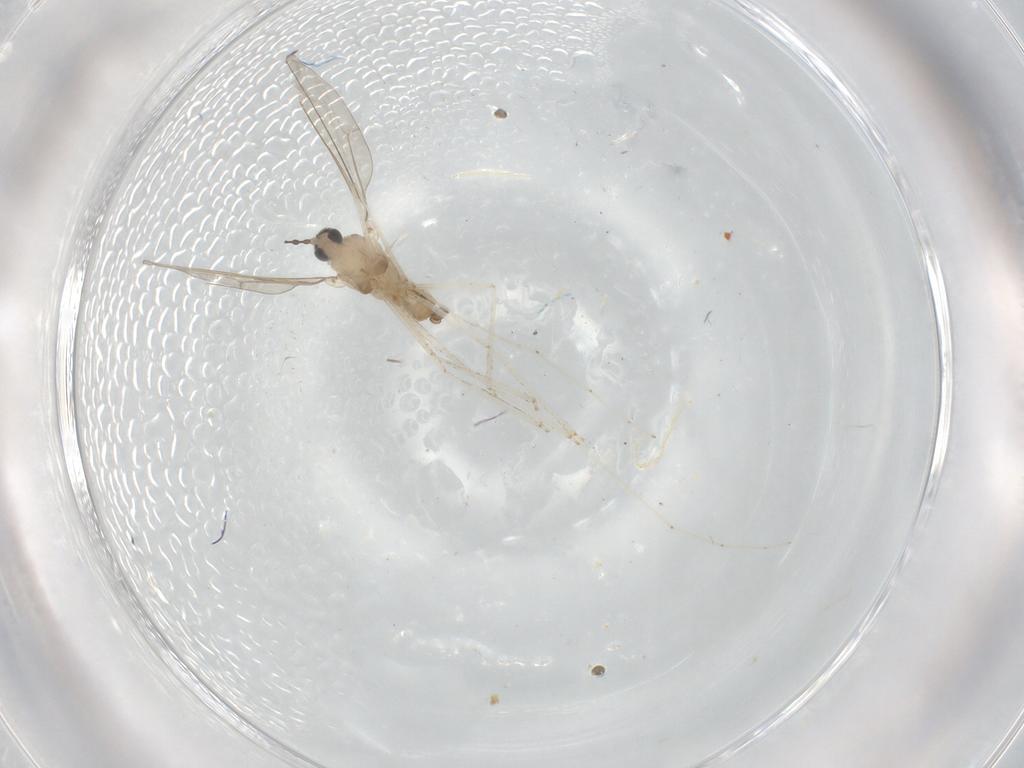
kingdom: Animalia
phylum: Arthropoda
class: Insecta
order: Diptera
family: Cecidomyiidae
